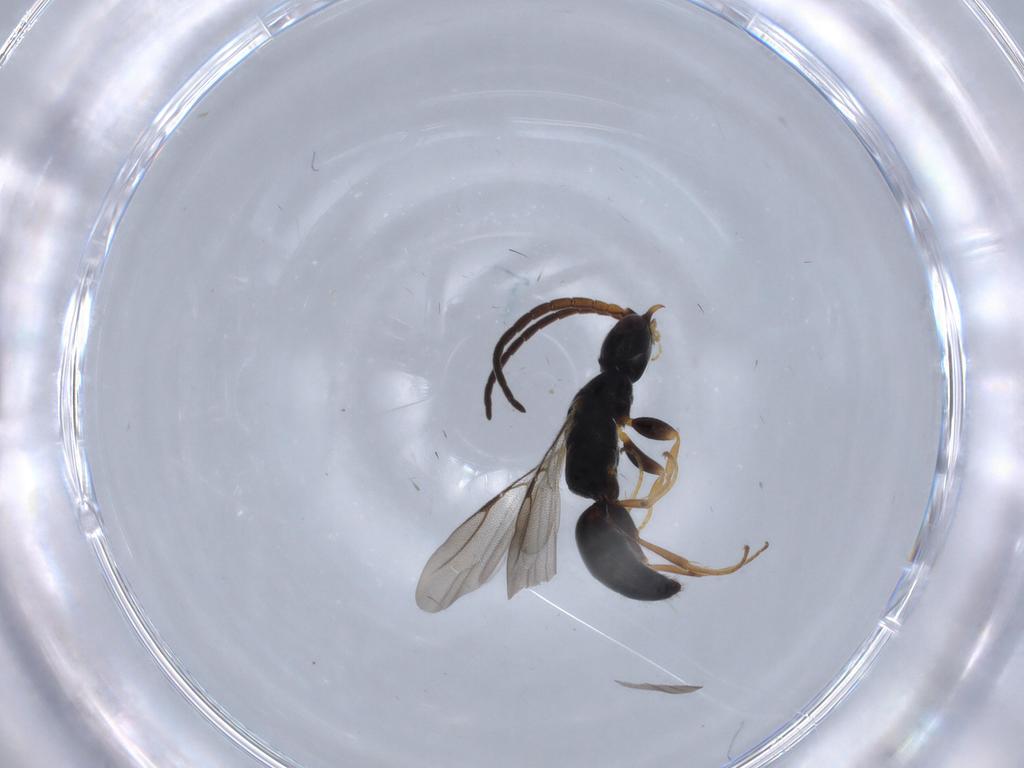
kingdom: Animalia
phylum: Arthropoda
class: Insecta
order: Hymenoptera
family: Bethylidae
